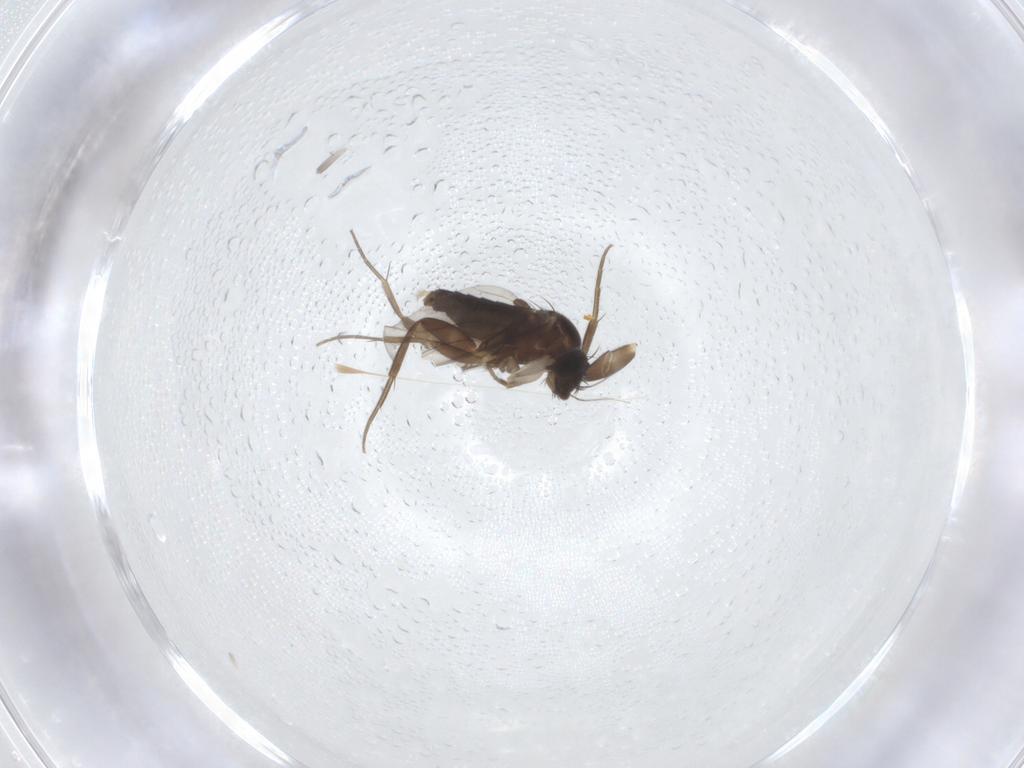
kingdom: Animalia
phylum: Arthropoda
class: Insecta
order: Diptera
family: Phoridae
